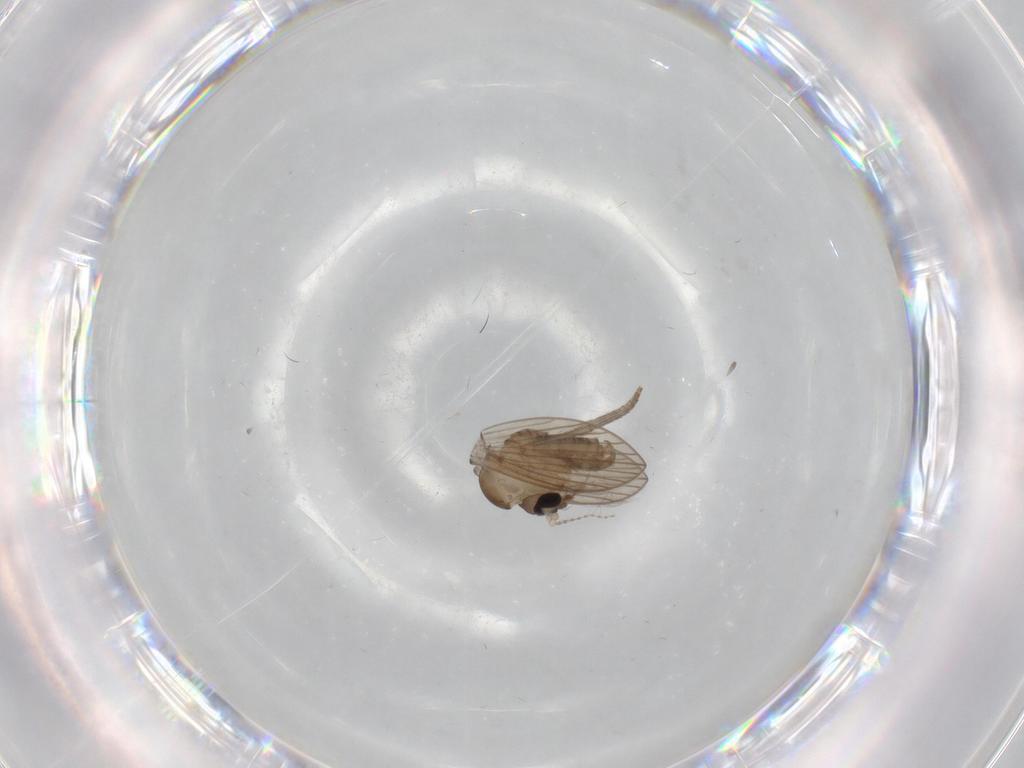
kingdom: Animalia
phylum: Arthropoda
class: Insecta
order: Diptera
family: Psychodidae
